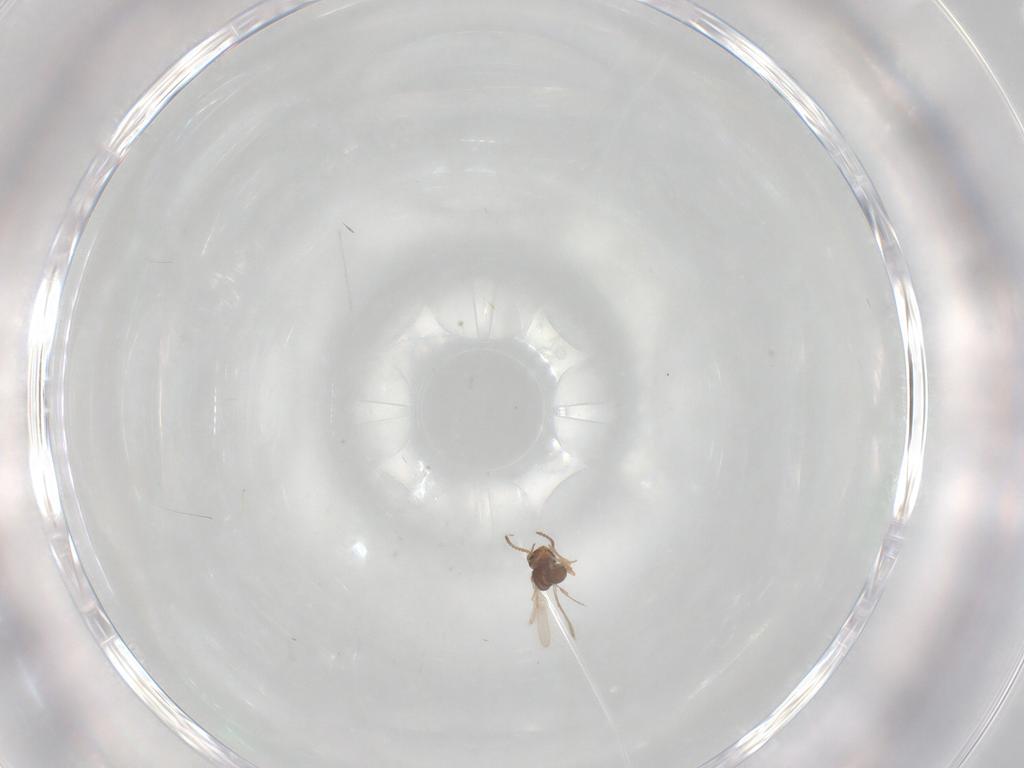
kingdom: Animalia
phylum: Arthropoda
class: Insecta
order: Hymenoptera
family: Scelionidae
